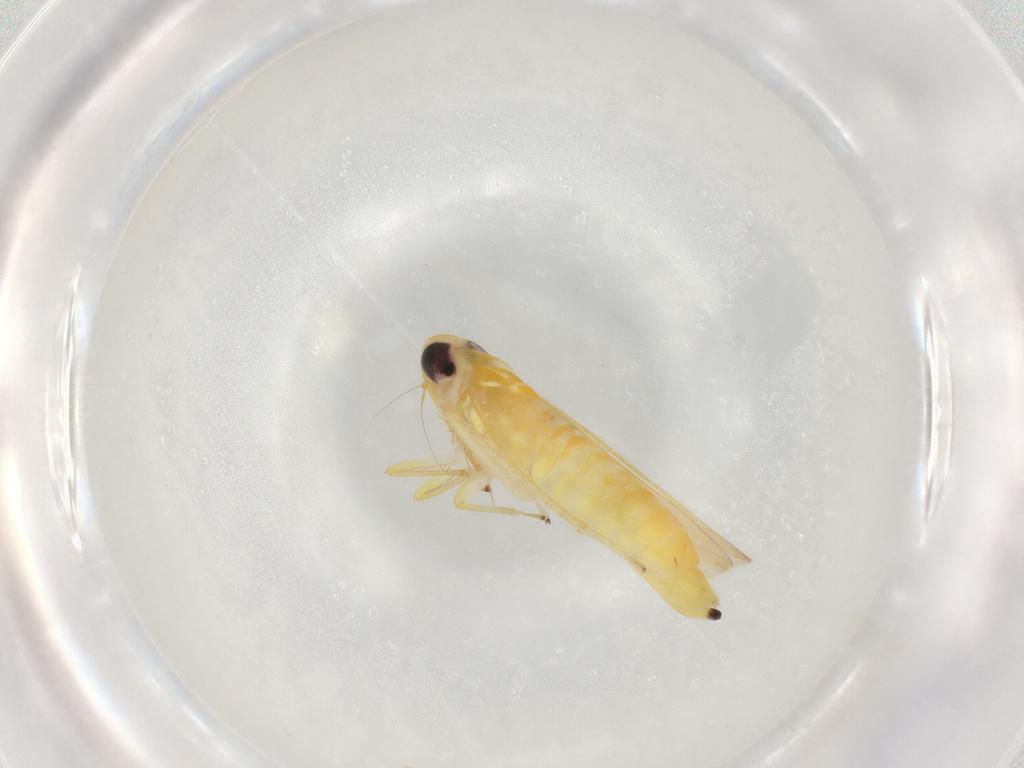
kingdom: Animalia
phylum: Arthropoda
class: Insecta
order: Hemiptera
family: Cicadellidae
